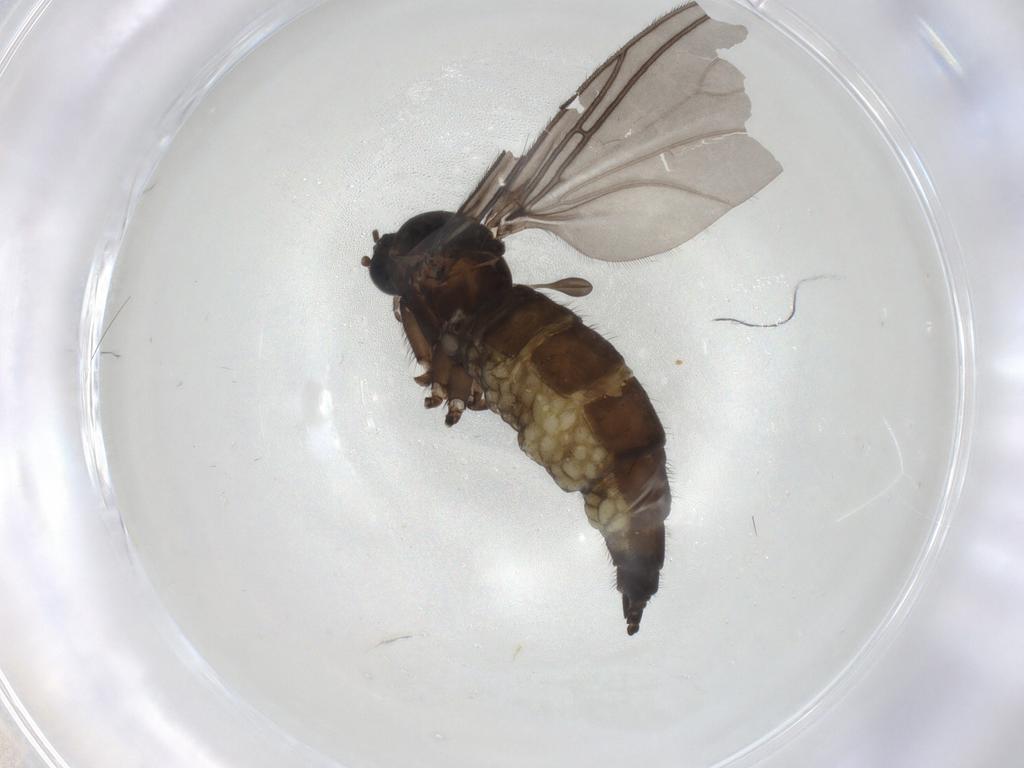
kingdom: Animalia
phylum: Arthropoda
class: Insecta
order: Diptera
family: Sciaridae
